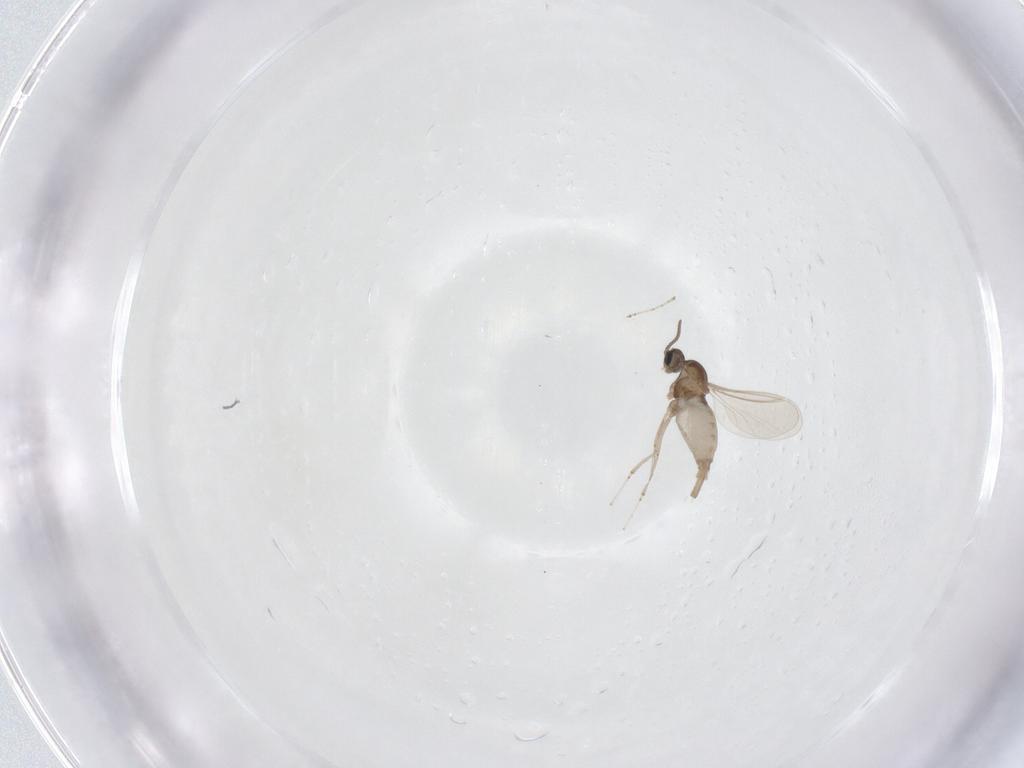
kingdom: Animalia
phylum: Arthropoda
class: Insecta
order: Diptera
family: Cecidomyiidae
